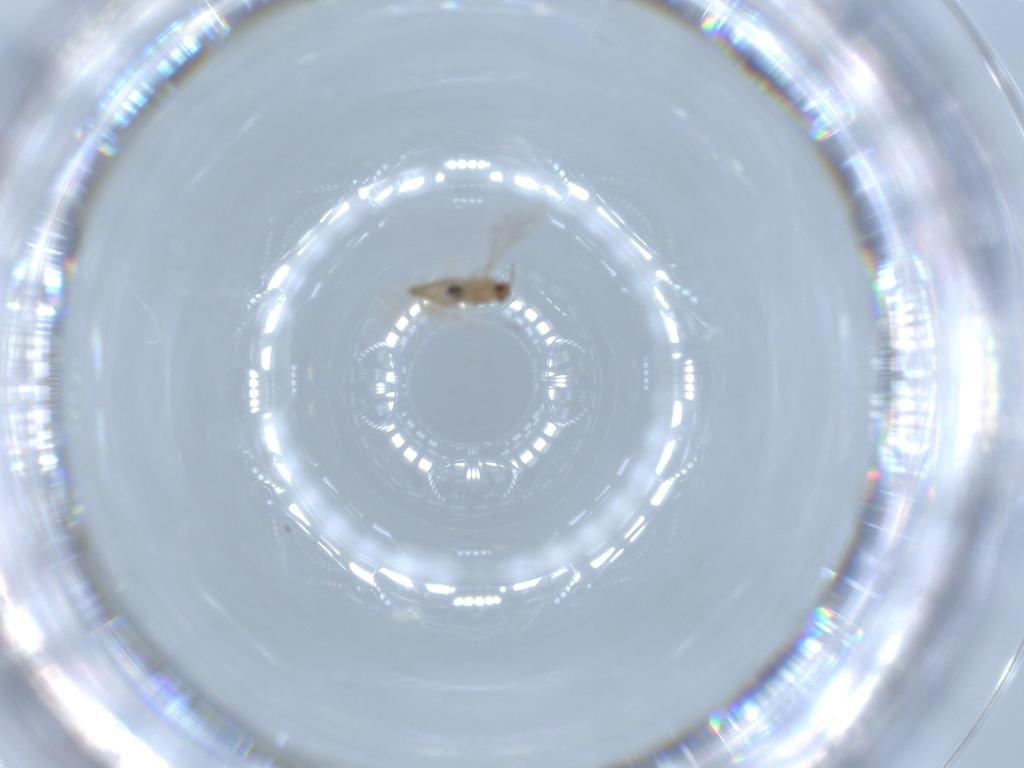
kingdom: Animalia
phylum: Arthropoda
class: Insecta
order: Diptera
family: Cecidomyiidae
